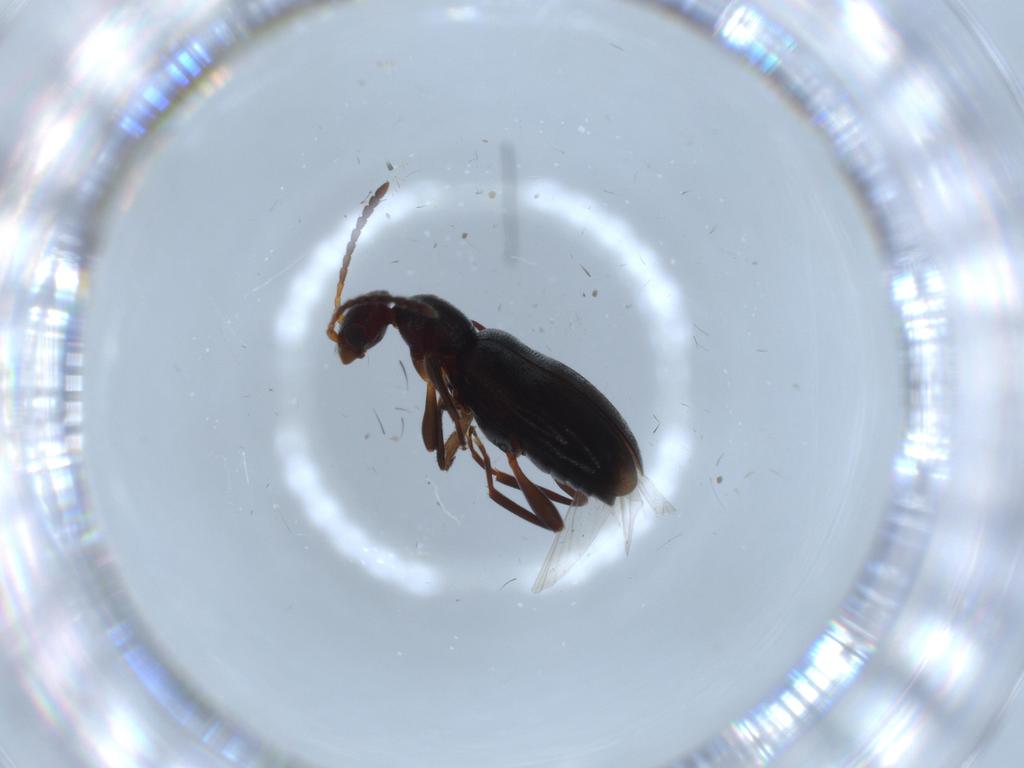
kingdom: Animalia
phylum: Arthropoda
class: Insecta
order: Coleoptera
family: Anthicidae
